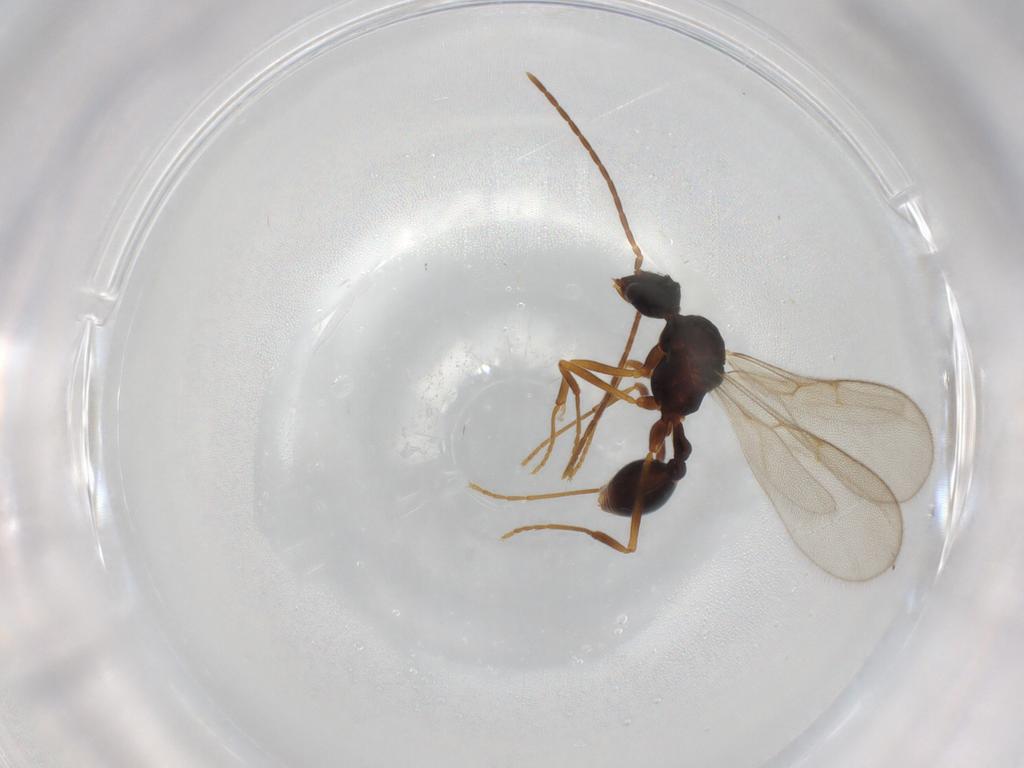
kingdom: Animalia
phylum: Arthropoda
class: Insecta
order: Hymenoptera
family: Formicidae
